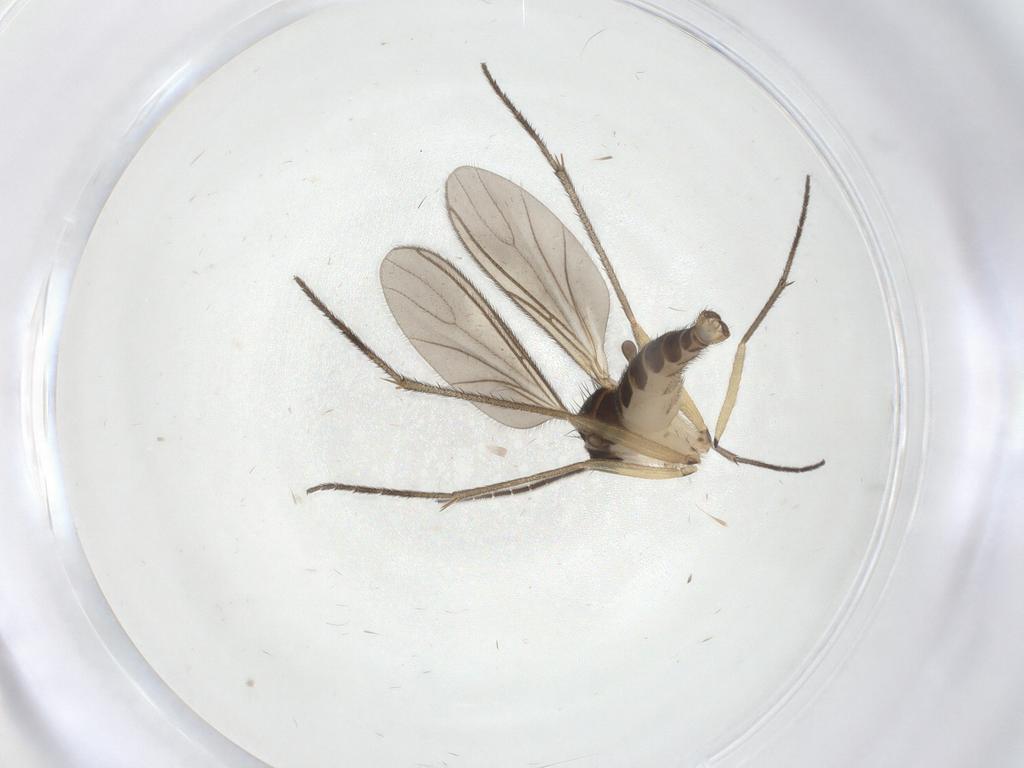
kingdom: Animalia
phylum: Arthropoda
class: Insecta
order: Diptera
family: Sciaridae
